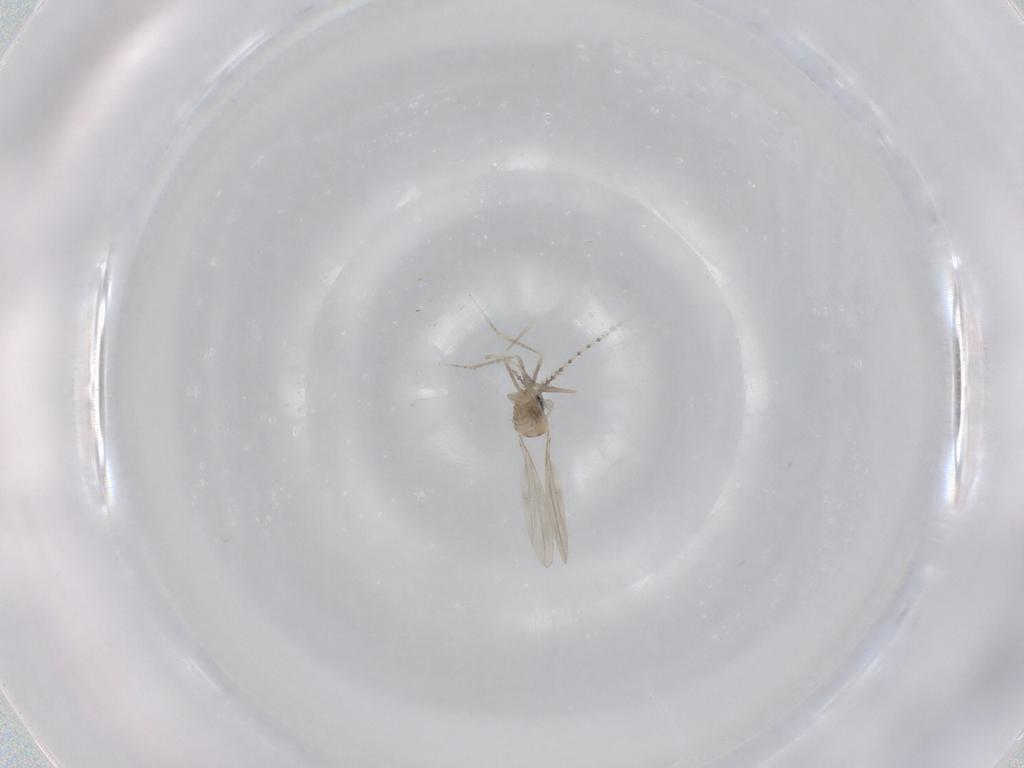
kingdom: Animalia
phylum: Arthropoda
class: Insecta
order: Diptera
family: Cecidomyiidae
